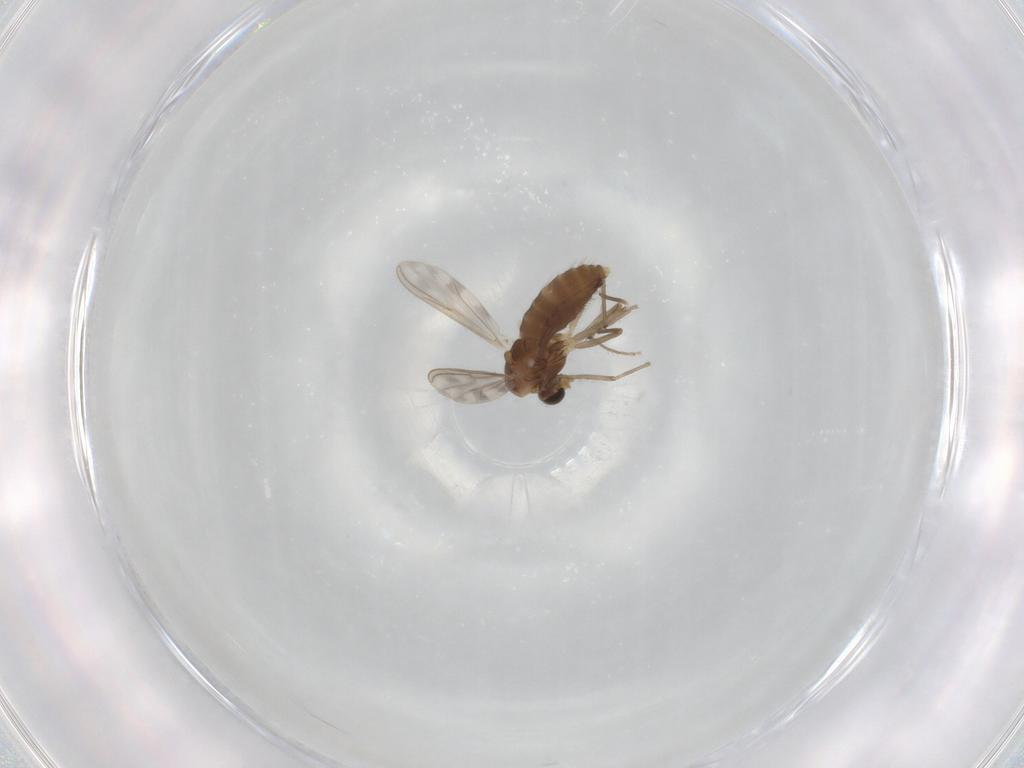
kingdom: Animalia
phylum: Arthropoda
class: Insecta
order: Diptera
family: Chironomidae
